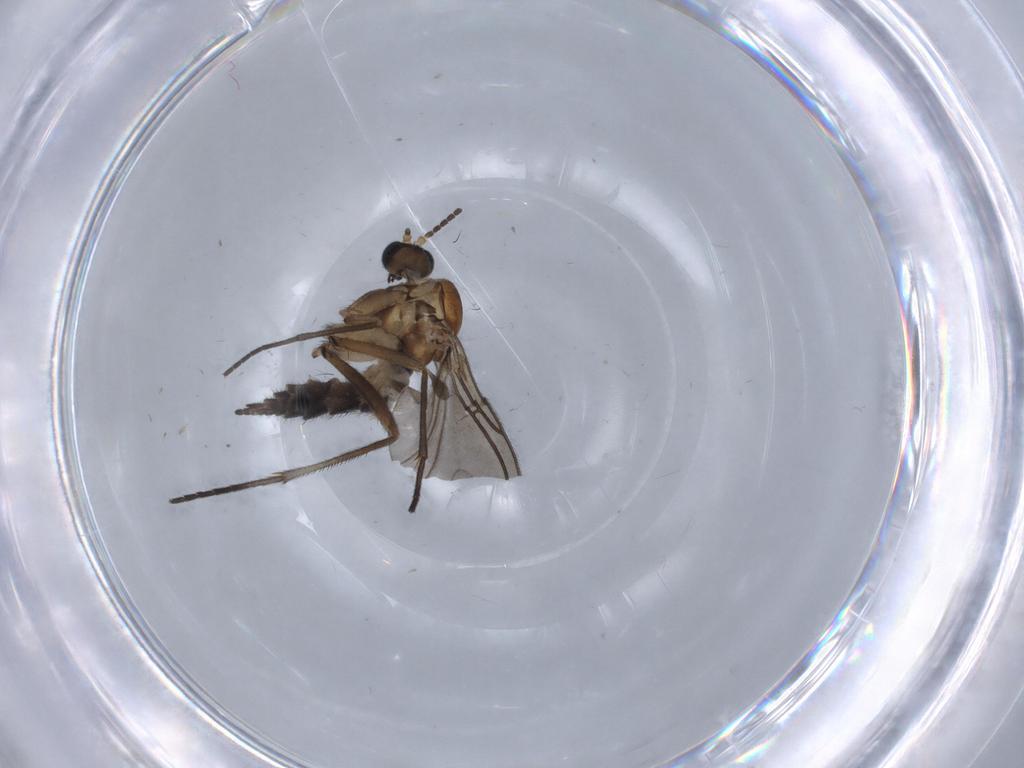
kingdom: Animalia
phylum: Arthropoda
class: Insecta
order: Diptera
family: Sciaridae
